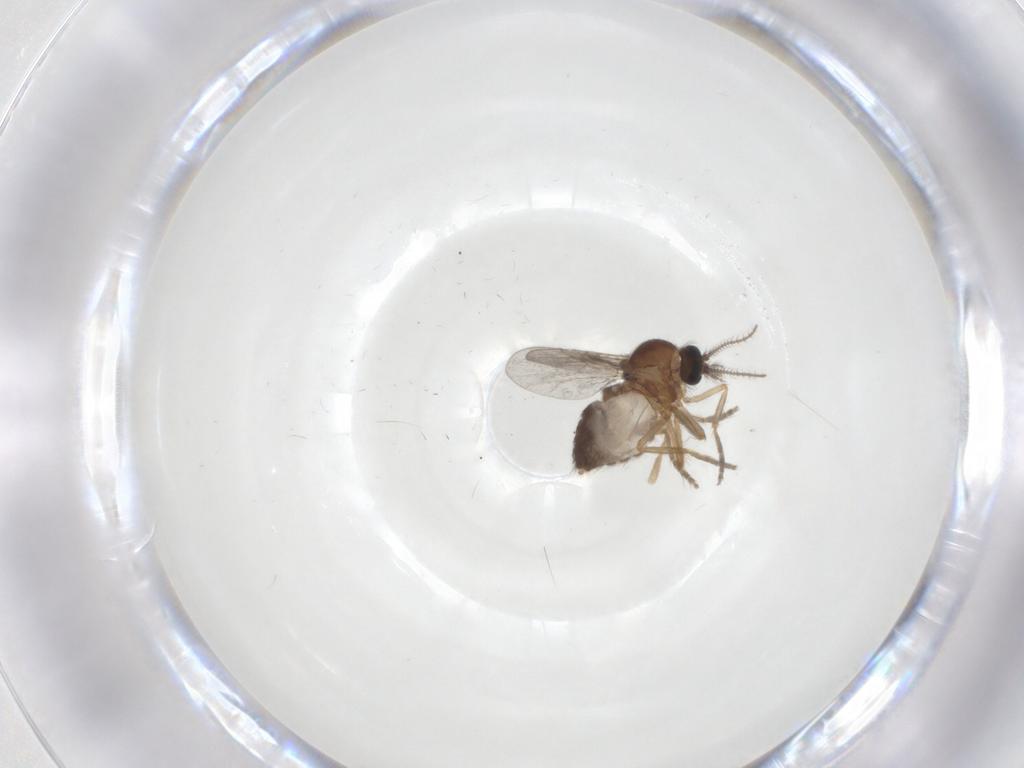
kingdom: Animalia
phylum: Arthropoda
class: Insecta
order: Diptera
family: Ceratopogonidae
